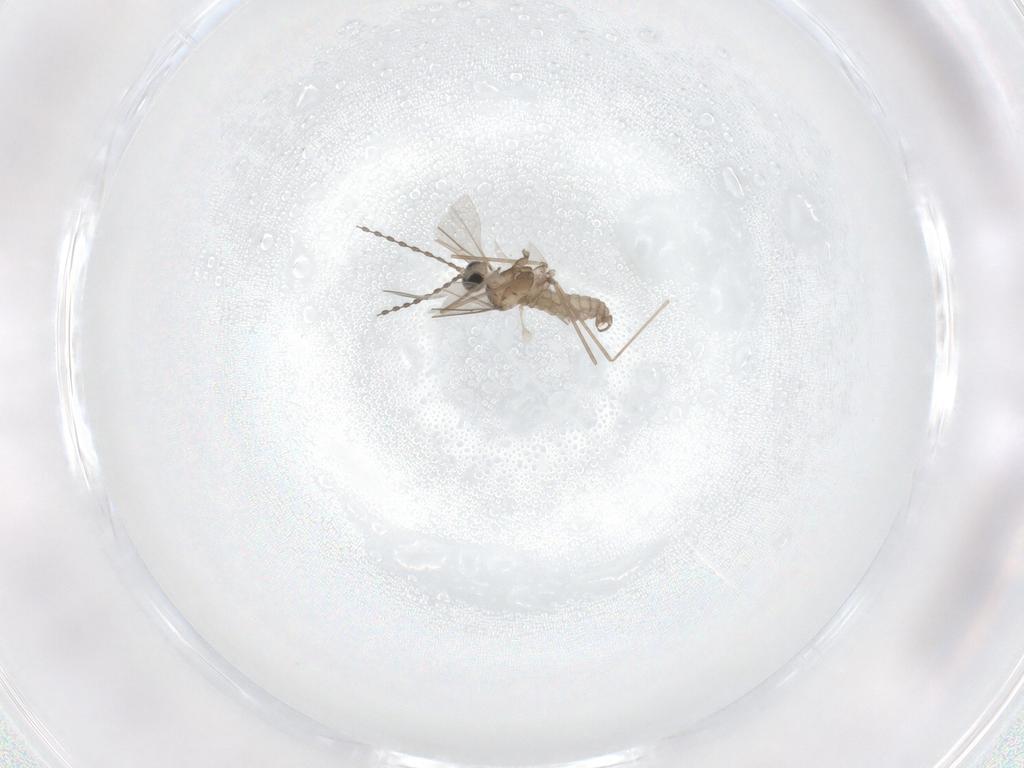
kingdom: Animalia
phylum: Arthropoda
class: Insecta
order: Diptera
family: Cecidomyiidae
